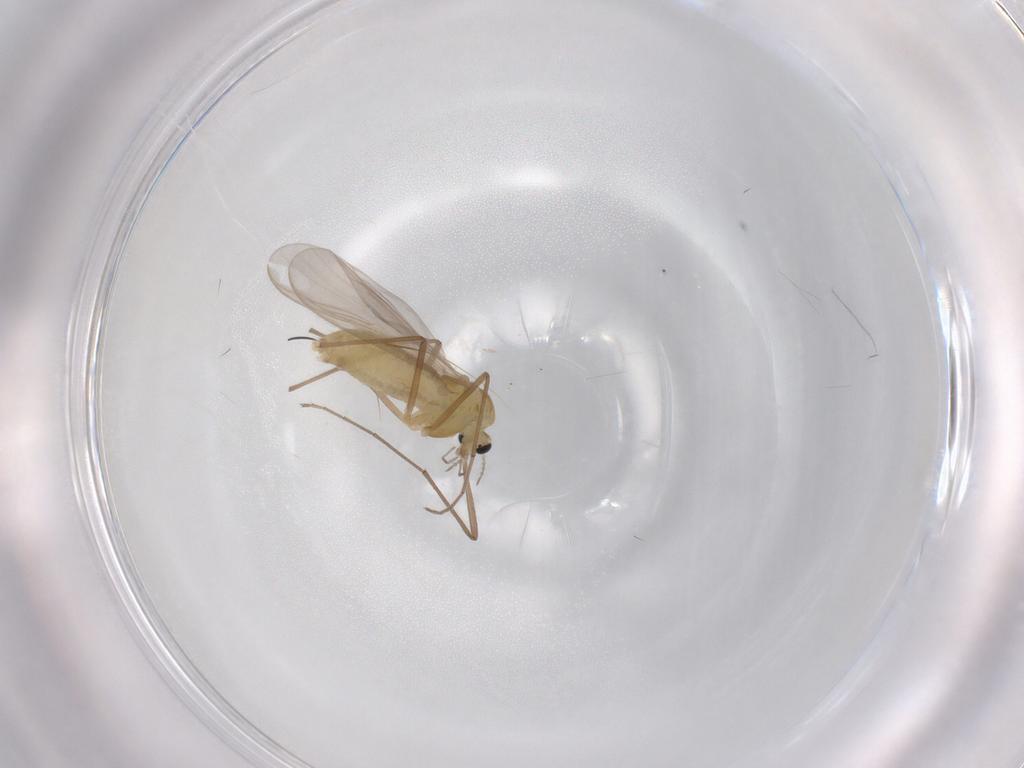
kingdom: Animalia
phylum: Arthropoda
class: Insecta
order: Diptera
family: Chironomidae
